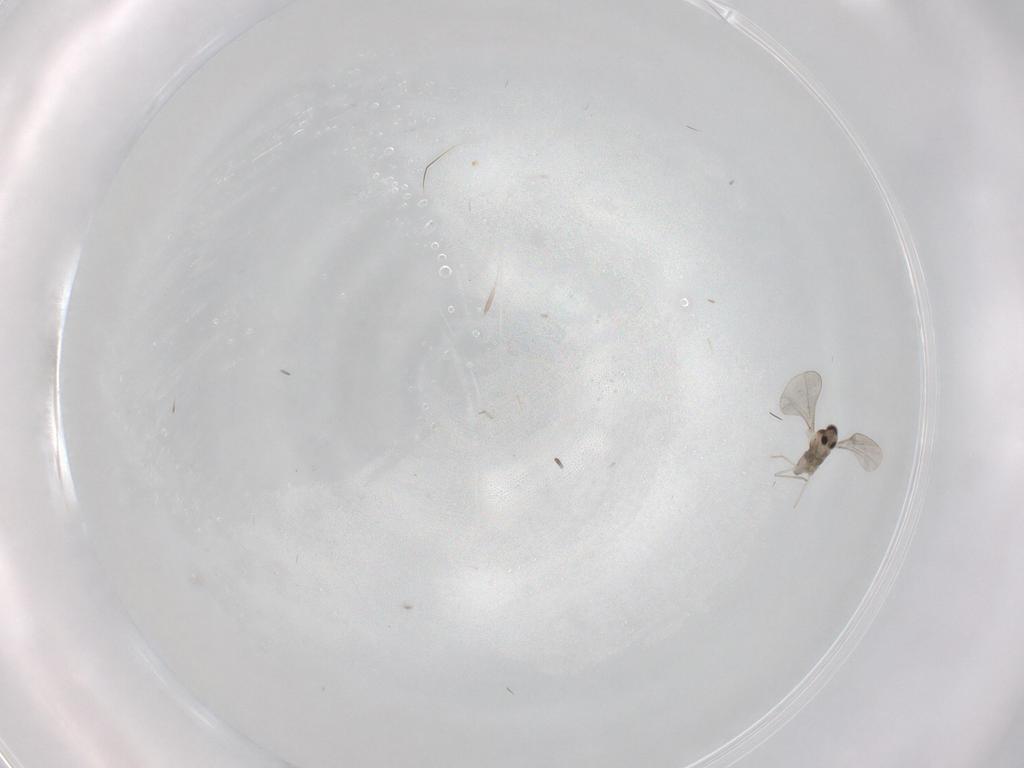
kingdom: Animalia
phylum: Arthropoda
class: Insecta
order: Diptera
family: Cecidomyiidae
